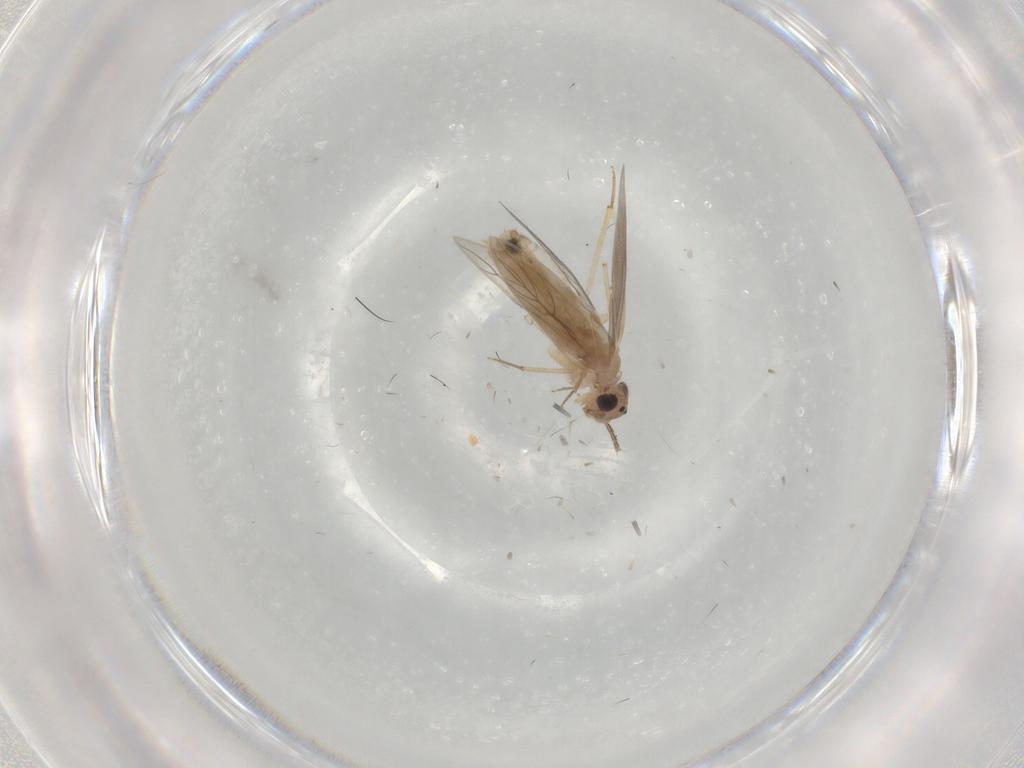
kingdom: Animalia
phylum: Arthropoda
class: Insecta
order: Psocodea
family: Lepidopsocidae
